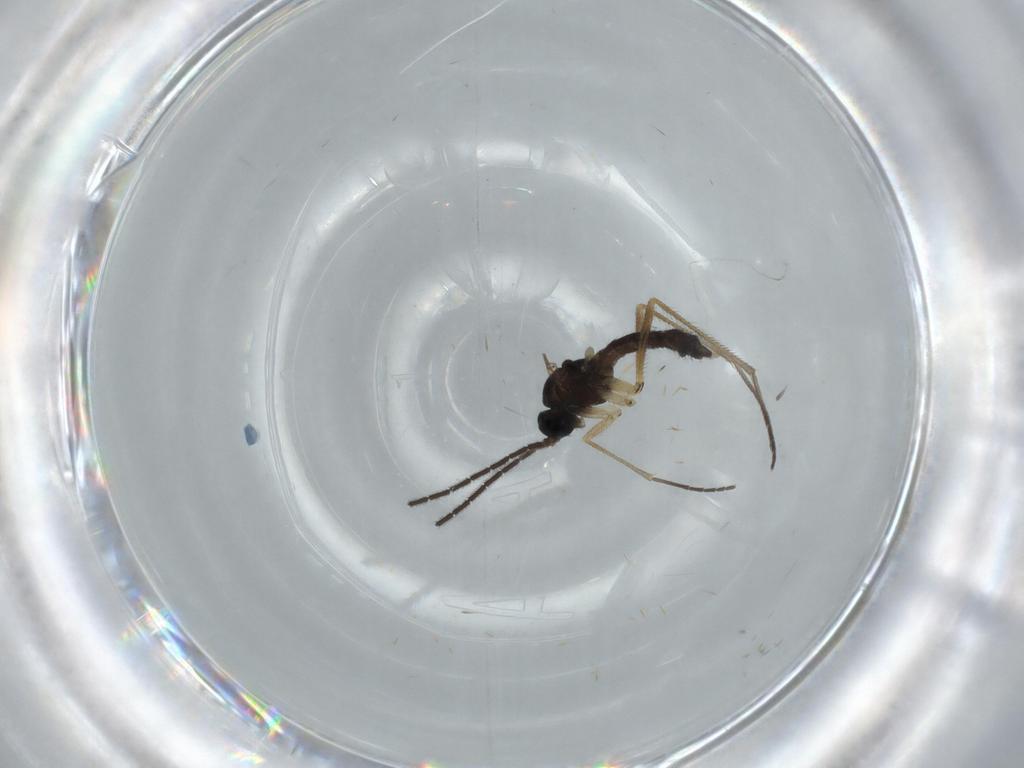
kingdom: Animalia
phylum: Arthropoda
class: Insecta
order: Diptera
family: Sciaridae
